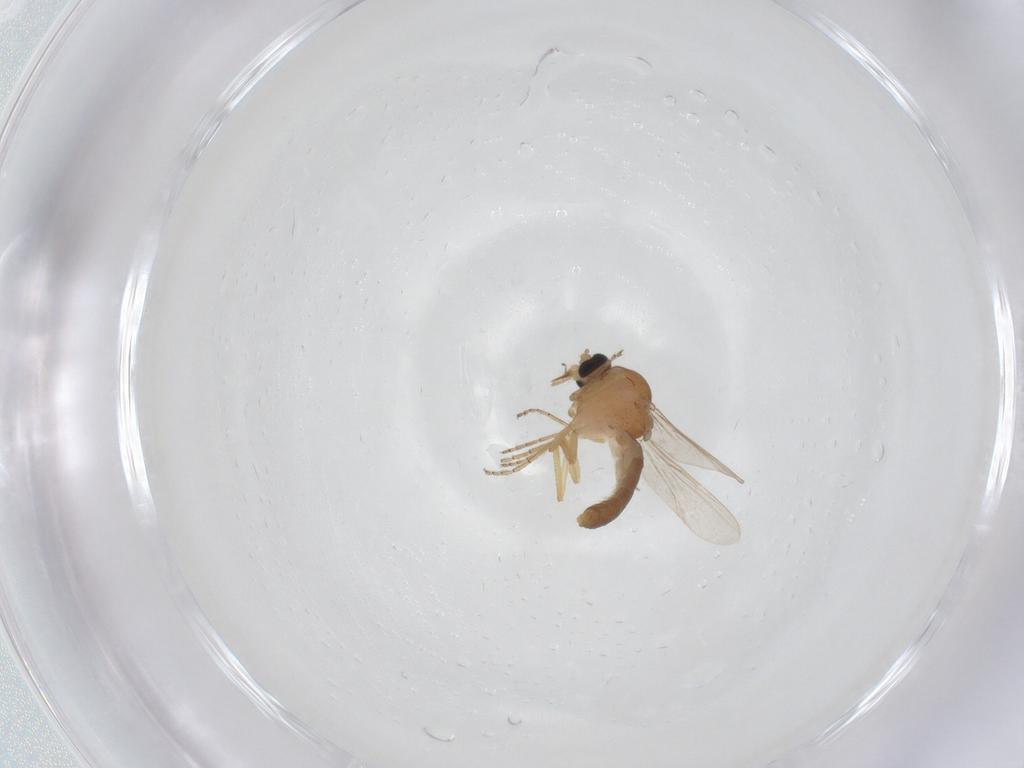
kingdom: Animalia
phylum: Arthropoda
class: Insecta
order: Diptera
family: Ceratopogonidae
